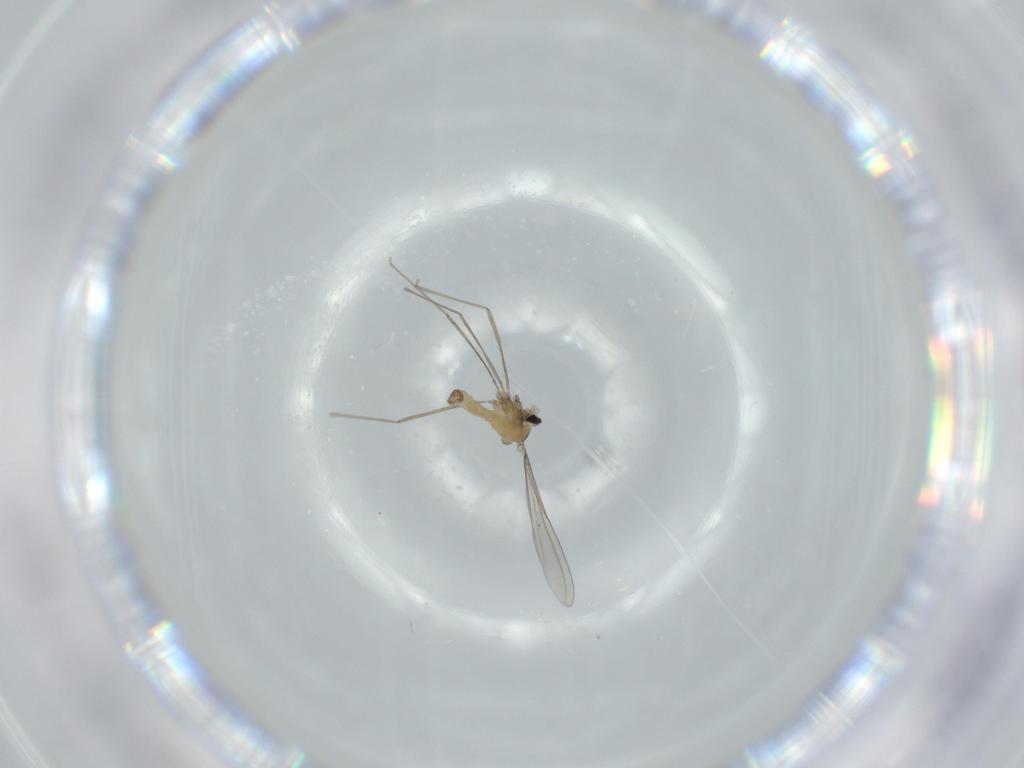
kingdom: Animalia
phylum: Arthropoda
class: Insecta
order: Diptera
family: Cecidomyiidae
